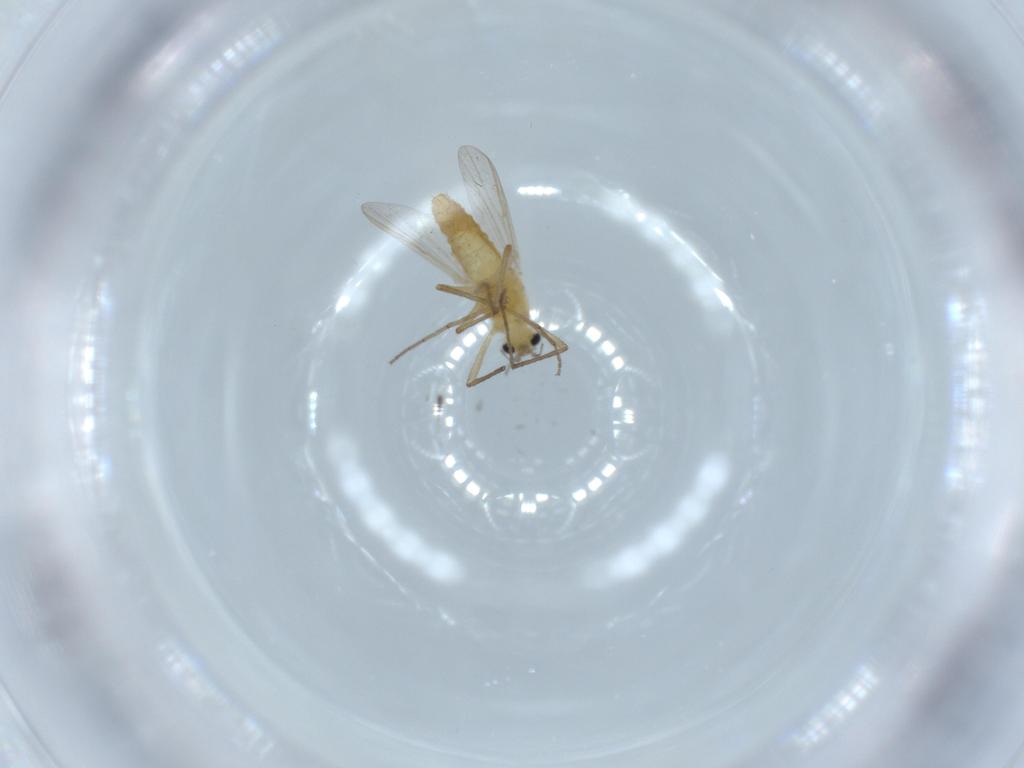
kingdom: Animalia
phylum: Arthropoda
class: Insecta
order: Diptera
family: Chironomidae
